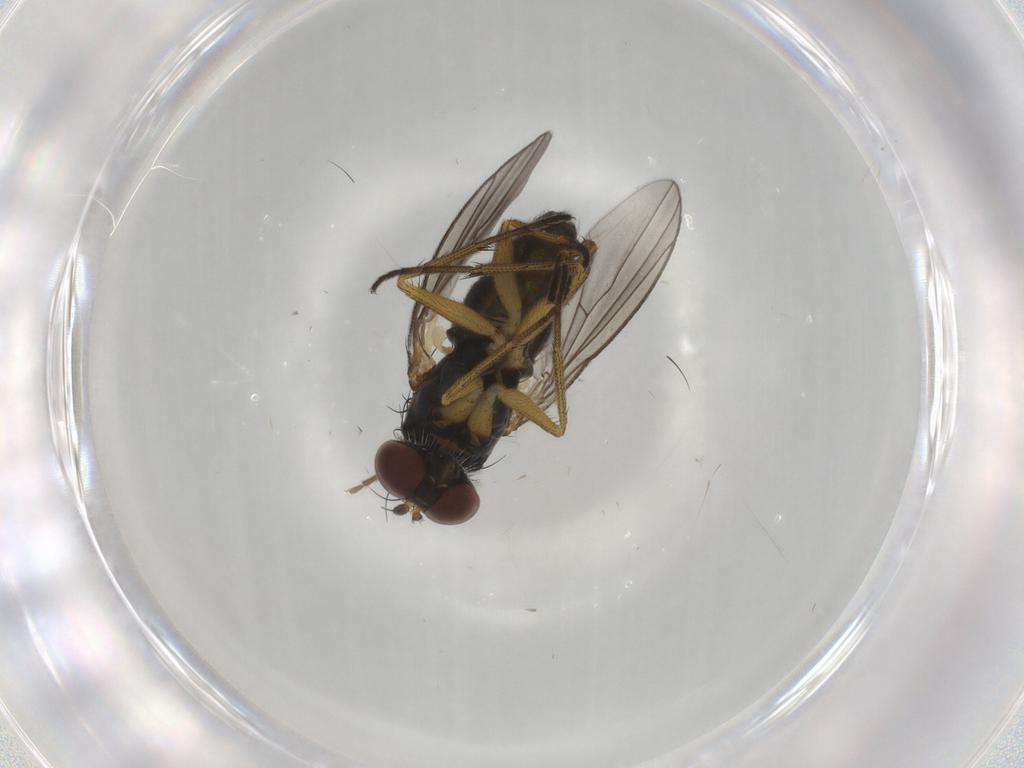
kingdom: Animalia
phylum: Arthropoda
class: Insecta
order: Diptera
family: Dolichopodidae
